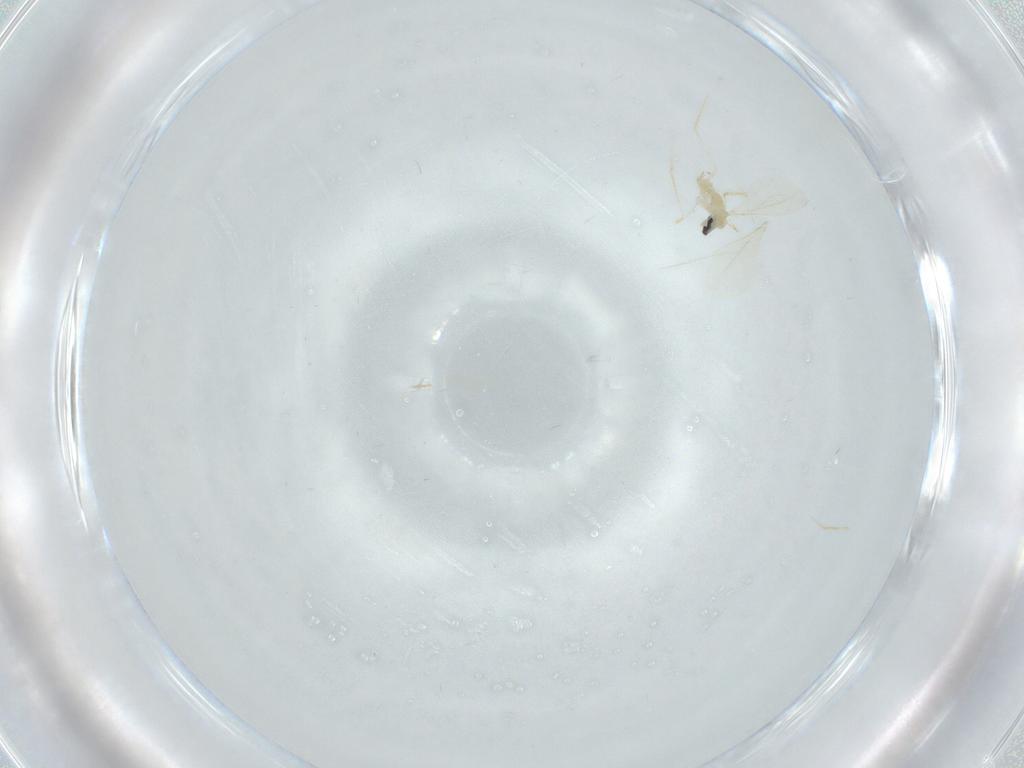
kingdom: Animalia
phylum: Arthropoda
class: Insecta
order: Diptera
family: Cecidomyiidae
